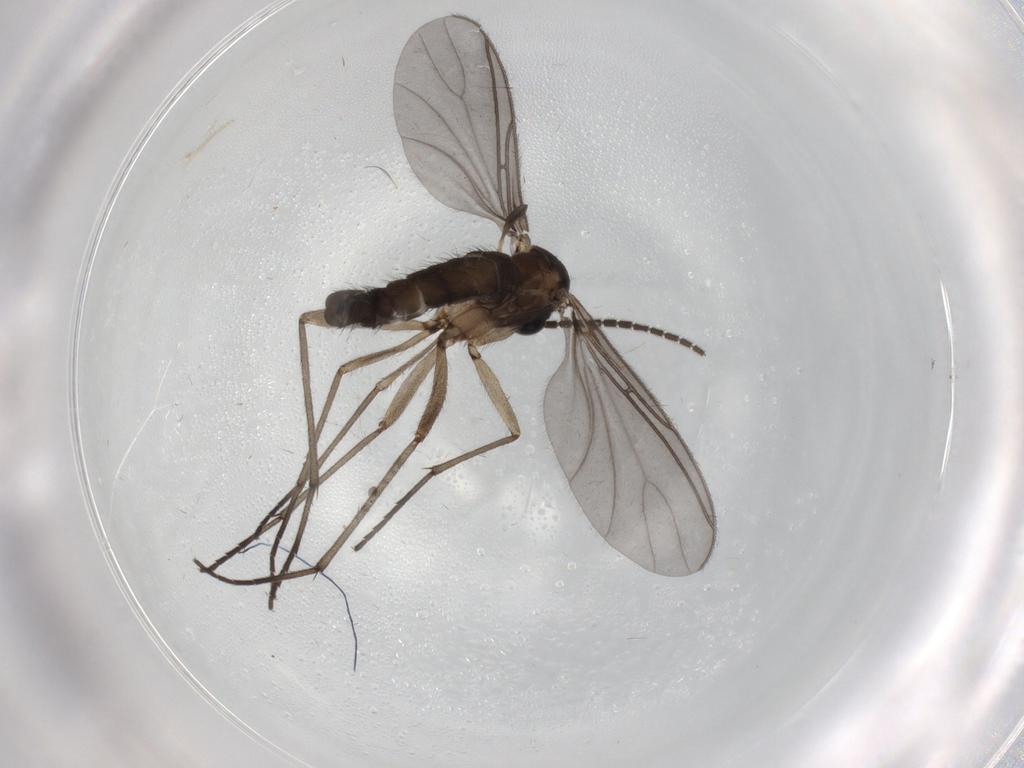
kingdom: Animalia
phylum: Arthropoda
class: Insecta
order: Diptera
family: Sciaridae
